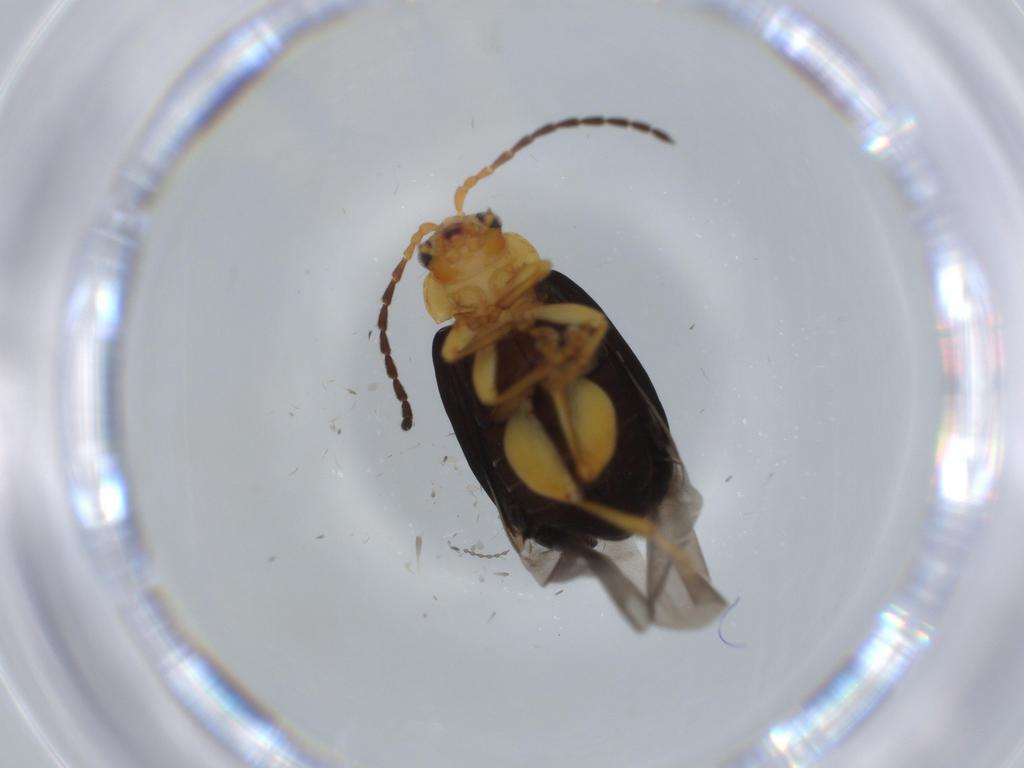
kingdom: Animalia
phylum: Arthropoda
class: Insecta
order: Coleoptera
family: Chrysomelidae
